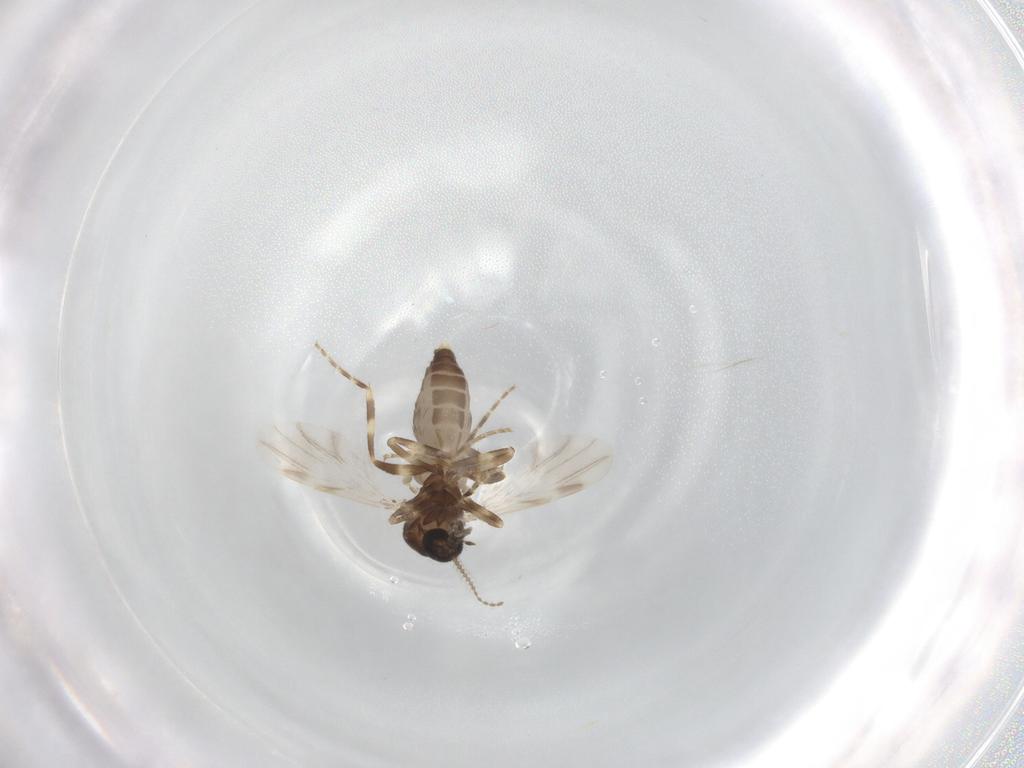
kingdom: Animalia
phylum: Arthropoda
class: Insecta
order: Diptera
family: Ceratopogonidae
